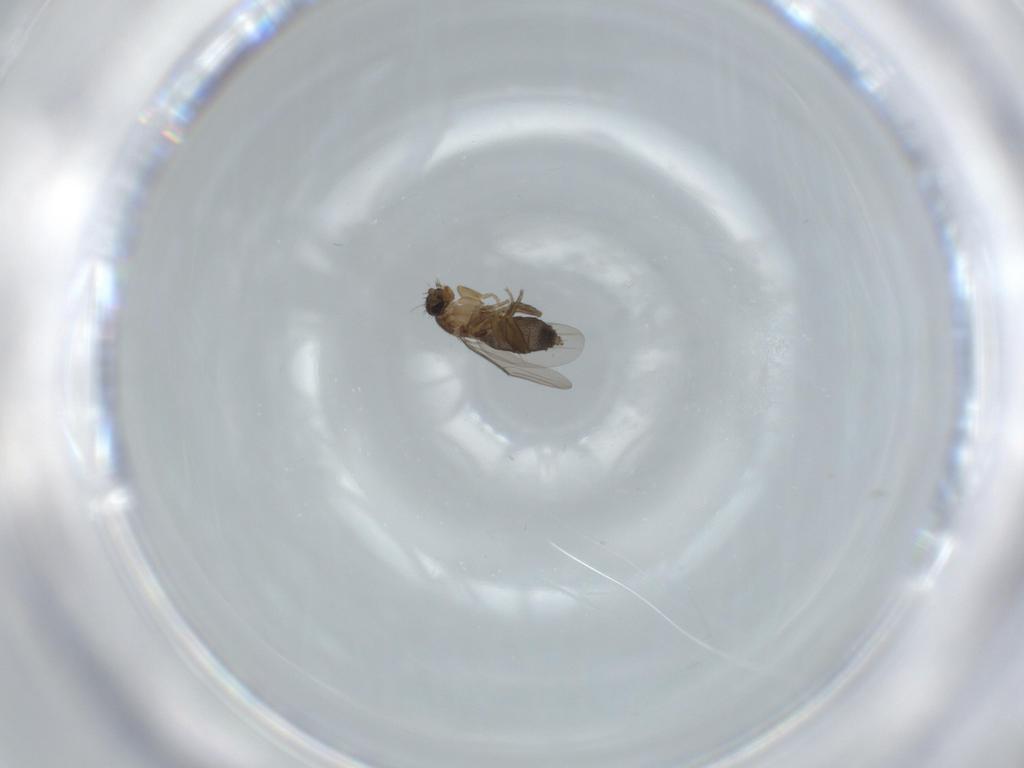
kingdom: Animalia
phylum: Arthropoda
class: Insecta
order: Diptera
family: Phoridae
